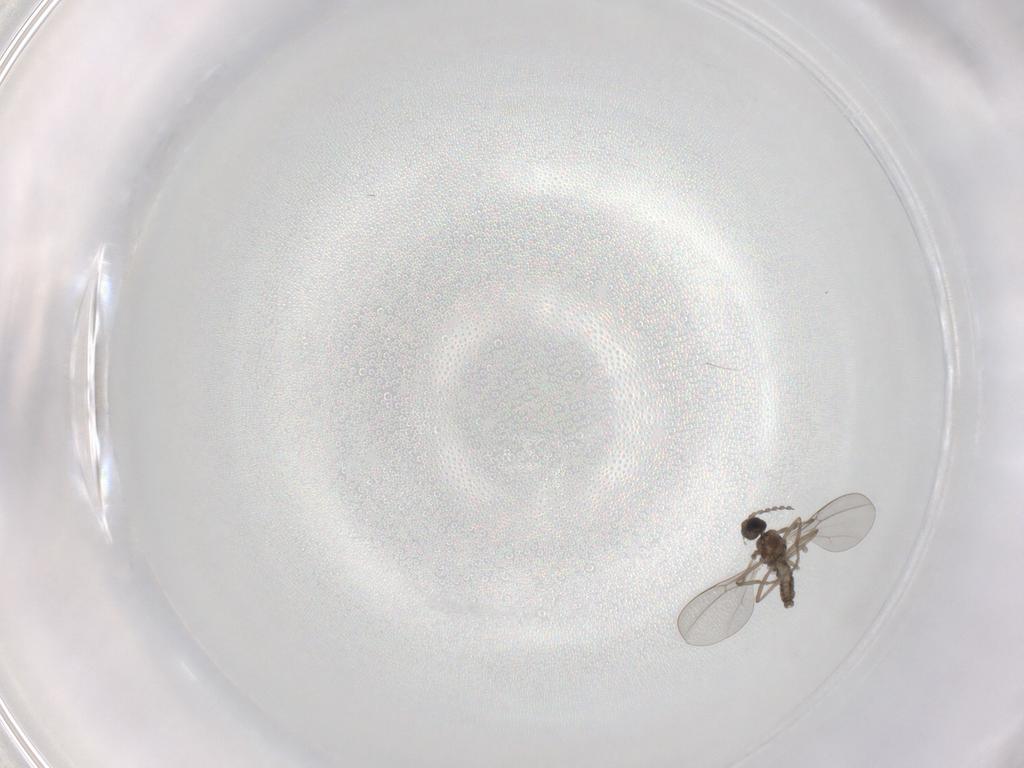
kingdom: Animalia
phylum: Arthropoda
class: Insecta
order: Diptera
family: Cecidomyiidae
